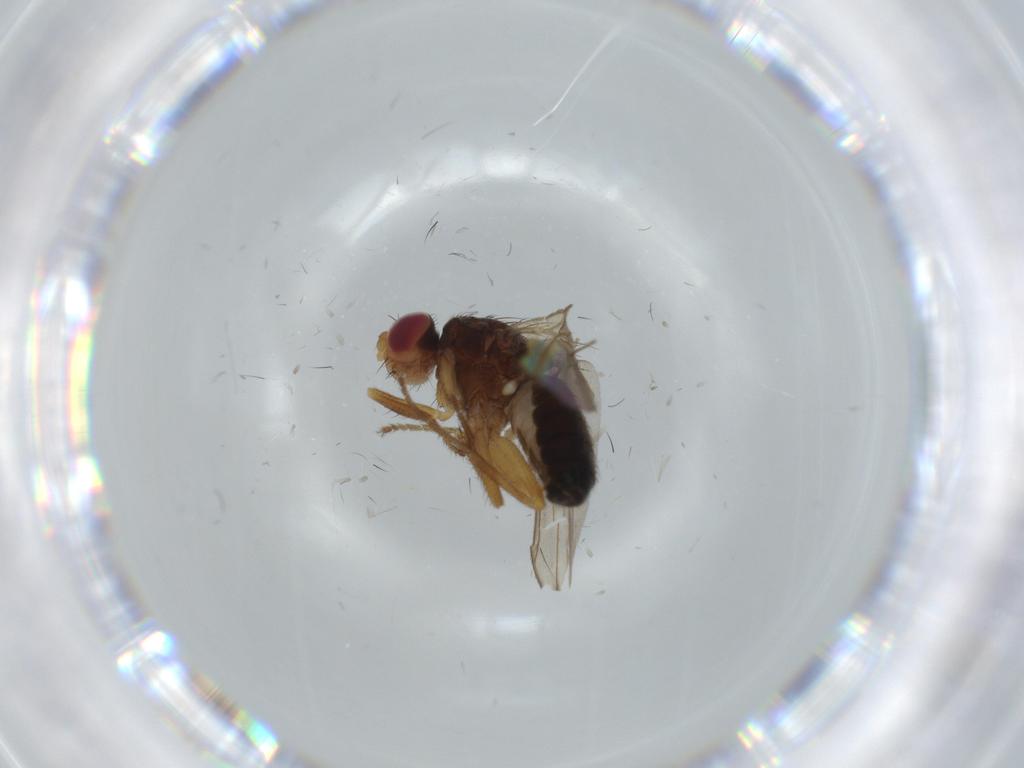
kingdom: Animalia
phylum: Arthropoda
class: Insecta
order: Diptera
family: Drosophilidae
